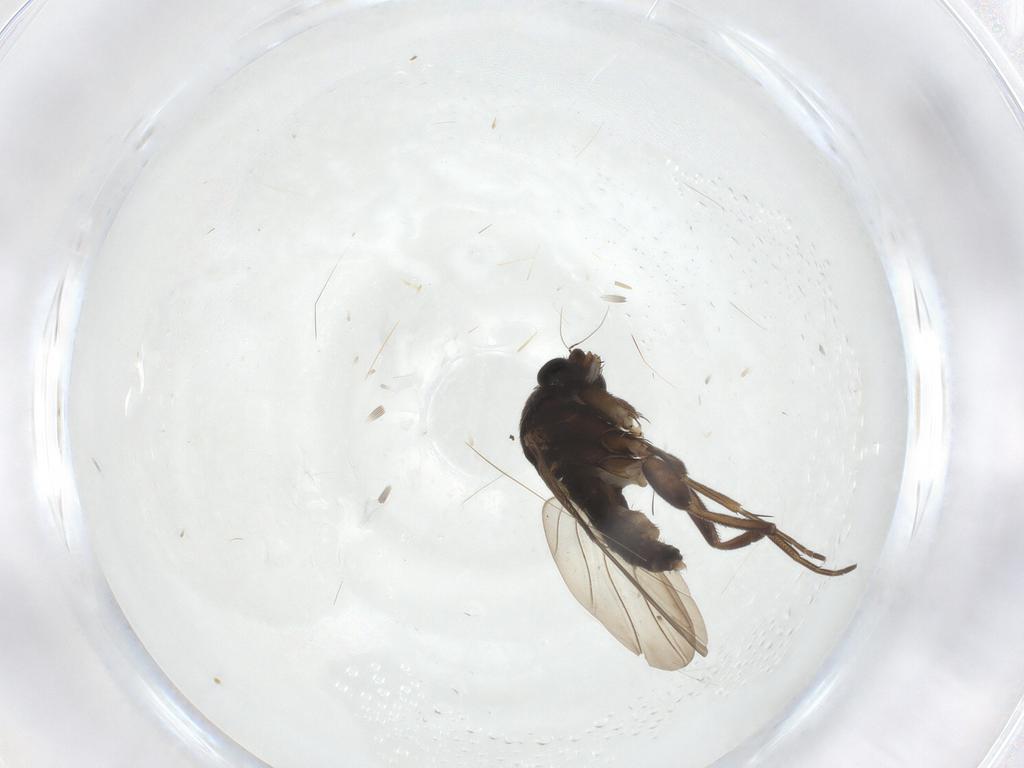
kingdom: Animalia
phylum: Arthropoda
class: Insecta
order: Diptera
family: Phoridae
